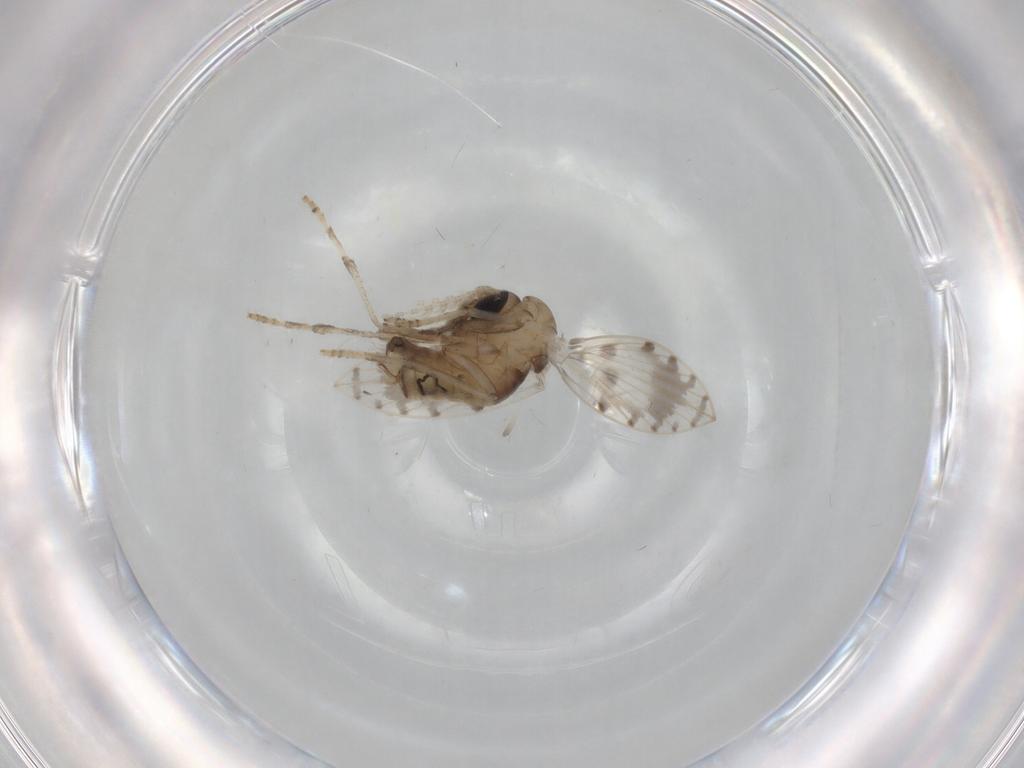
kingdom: Animalia
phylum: Arthropoda
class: Insecta
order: Diptera
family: Drosophilidae
